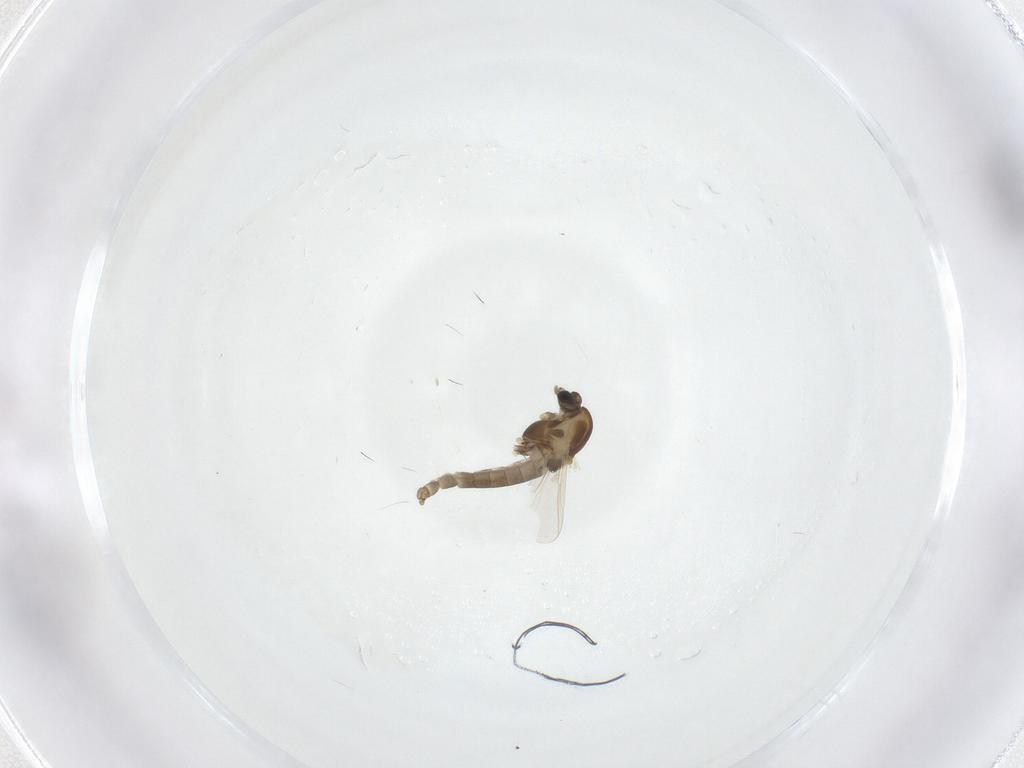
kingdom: Animalia
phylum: Arthropoda
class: Insecta
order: Diptera
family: Chironomidae
